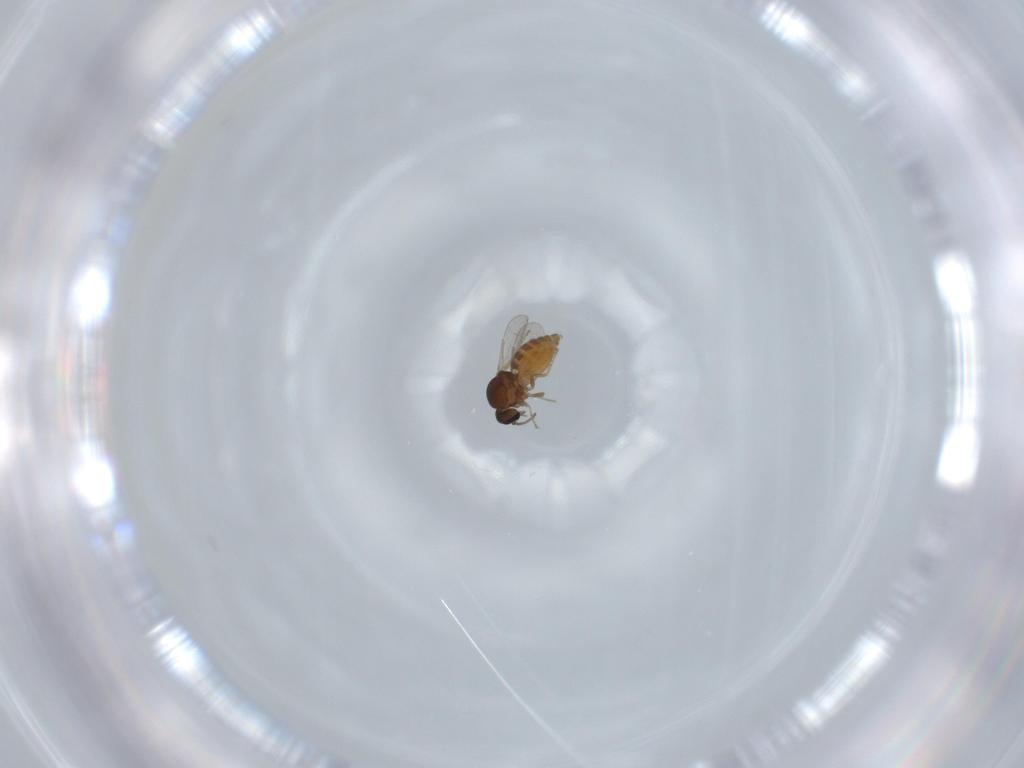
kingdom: Animalia
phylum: Arthropoda
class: Insecta
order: Diptera
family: Ceratopogonidae
